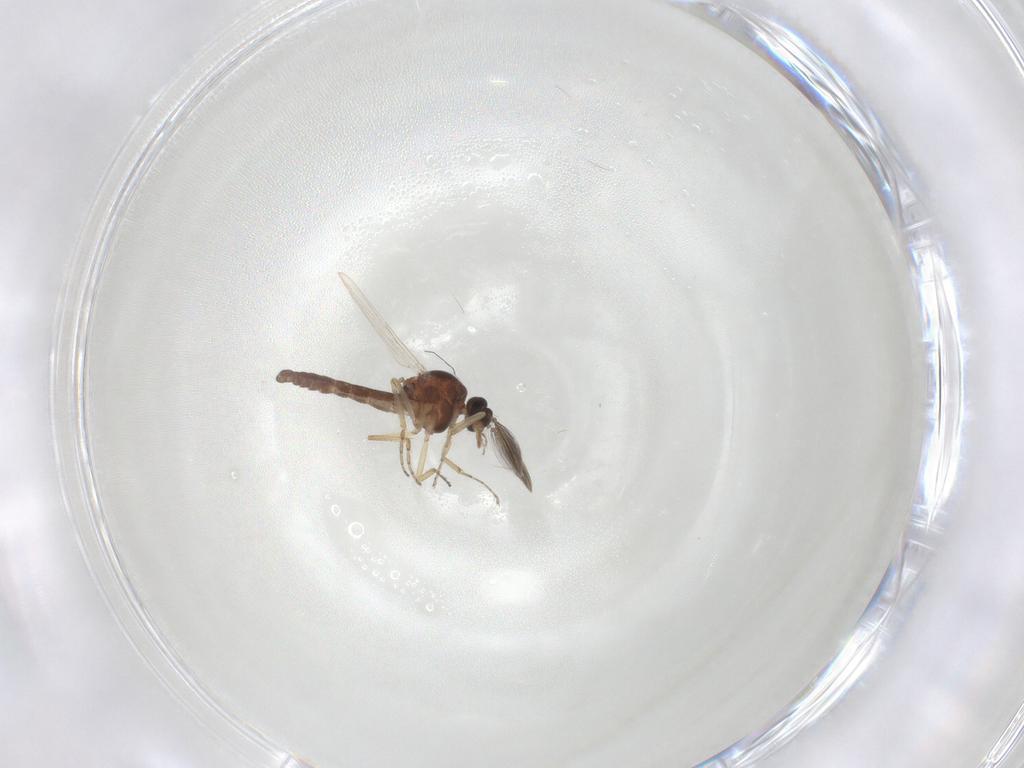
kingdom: Animalia
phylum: Arthropoda
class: Insecta
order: Diptera
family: Ceratopogonidae
